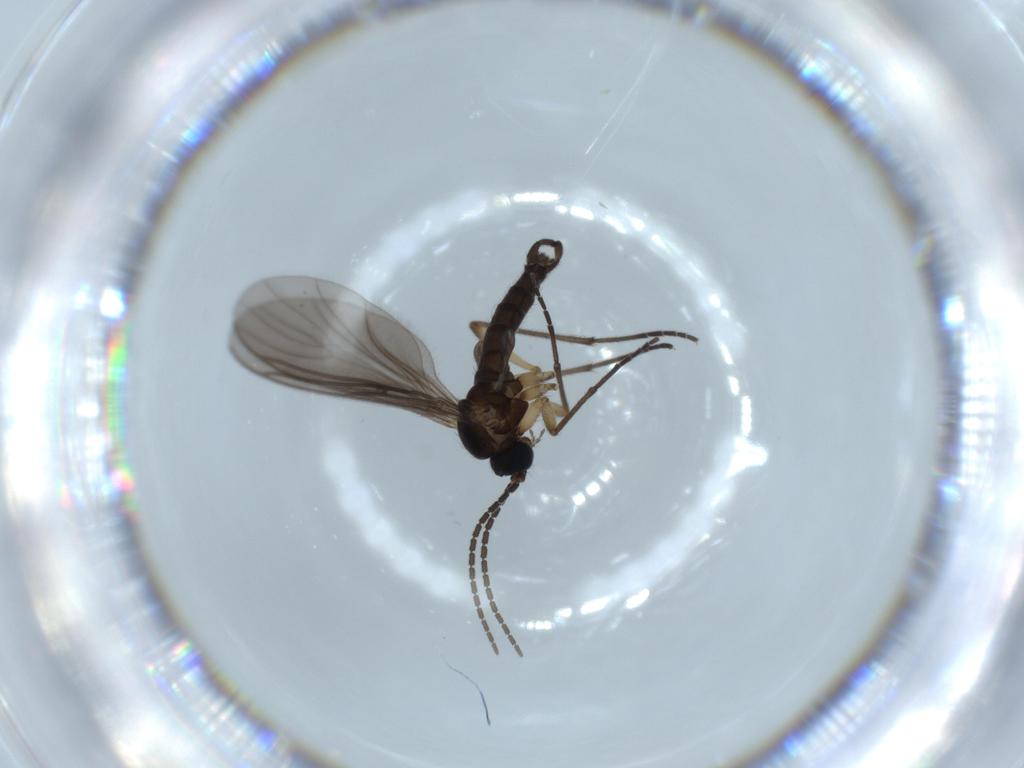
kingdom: Animalia
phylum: Arthropoda
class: Insecta
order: Diptera
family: Sciaridae
